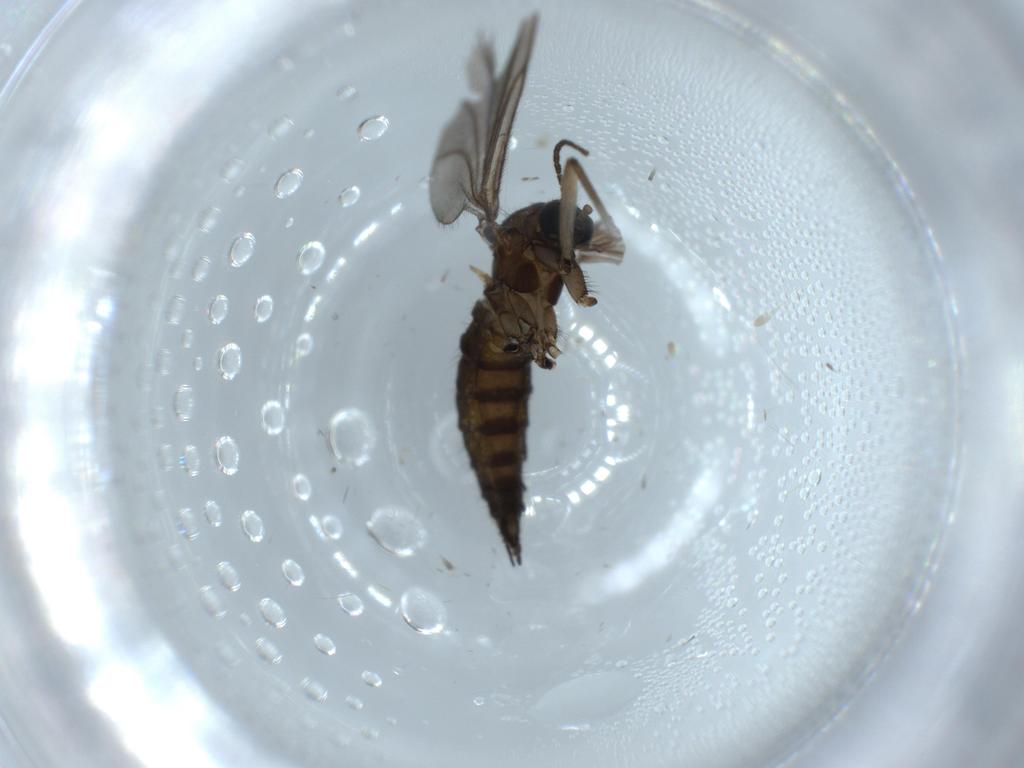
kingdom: Animalia
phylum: Arthropoda
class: Insecta
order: Diptera
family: Sciaridae
